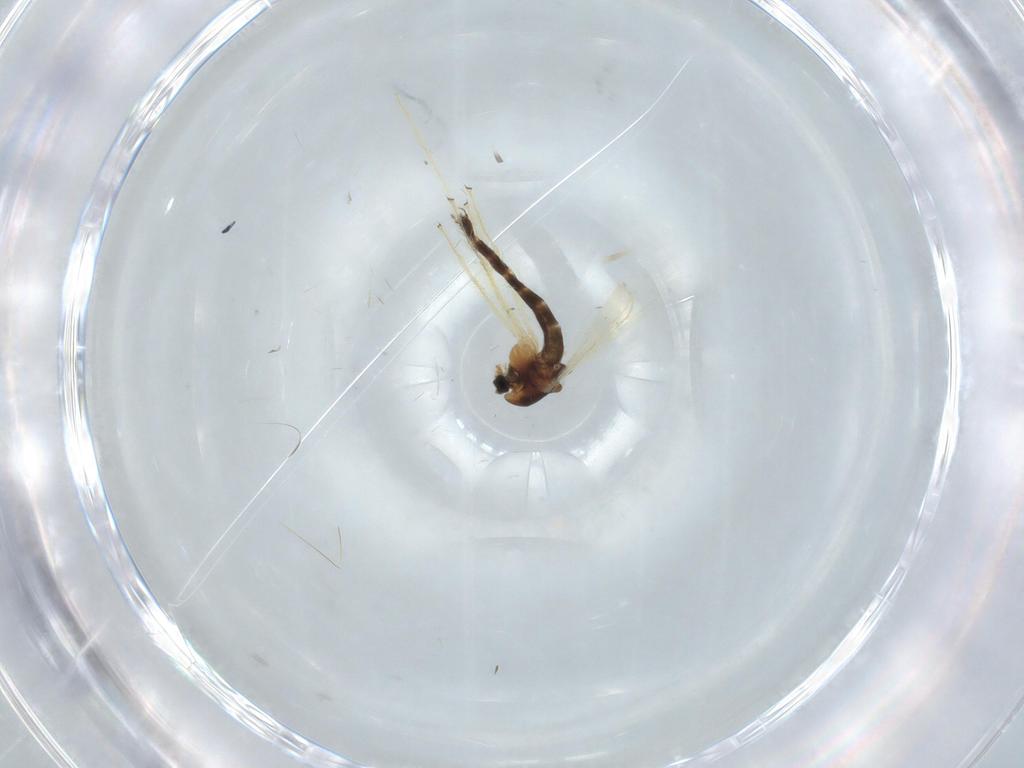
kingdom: Animalia
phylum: Arthropoda
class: Insecta
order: Diptera
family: Chironomidae
